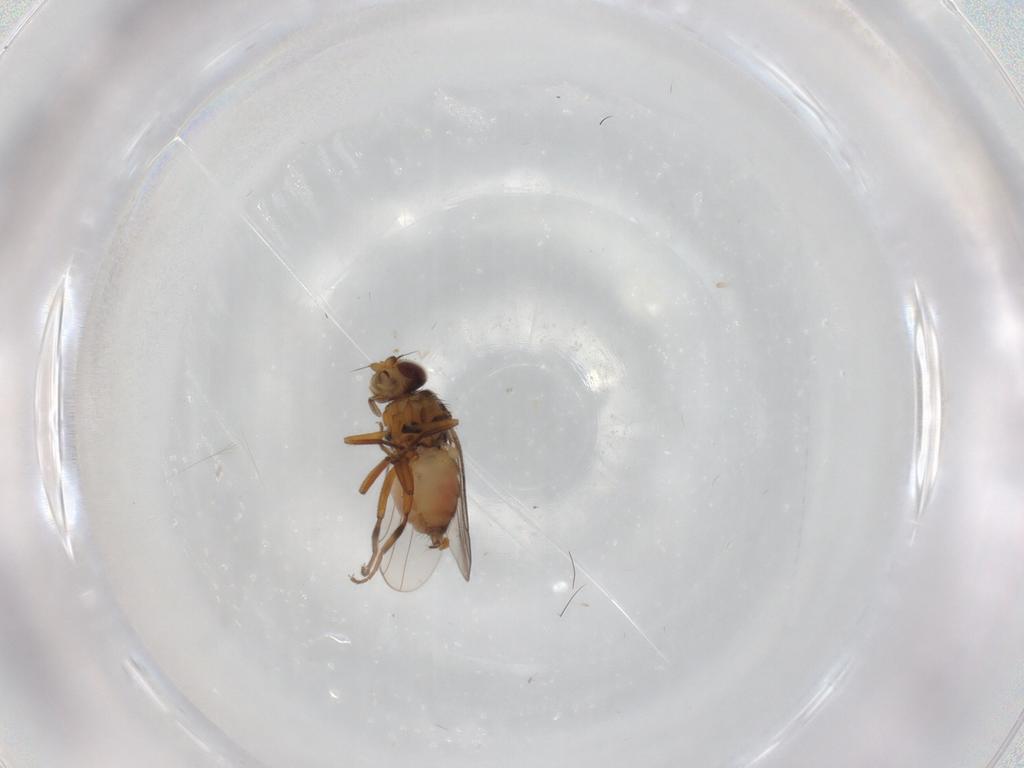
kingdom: Animalia
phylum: Arthropoda
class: Insecta
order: Diptera
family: Chloropidae
